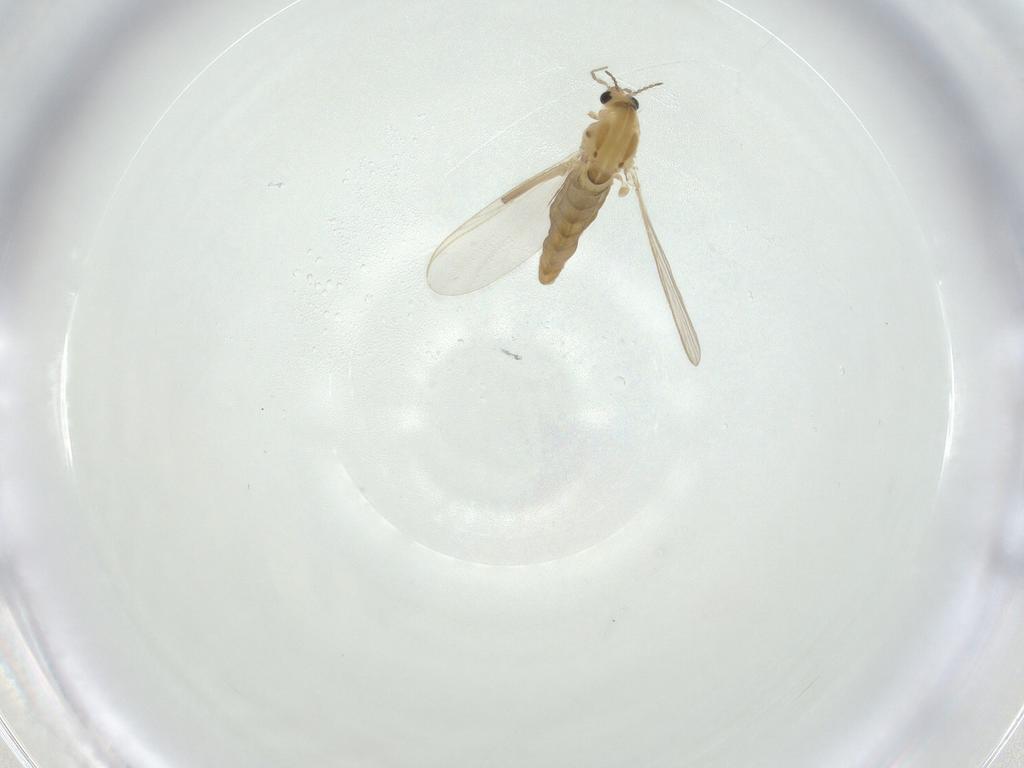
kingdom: Animalia
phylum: Arthropoda
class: Insecta
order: Diptera
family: Chironomidae
